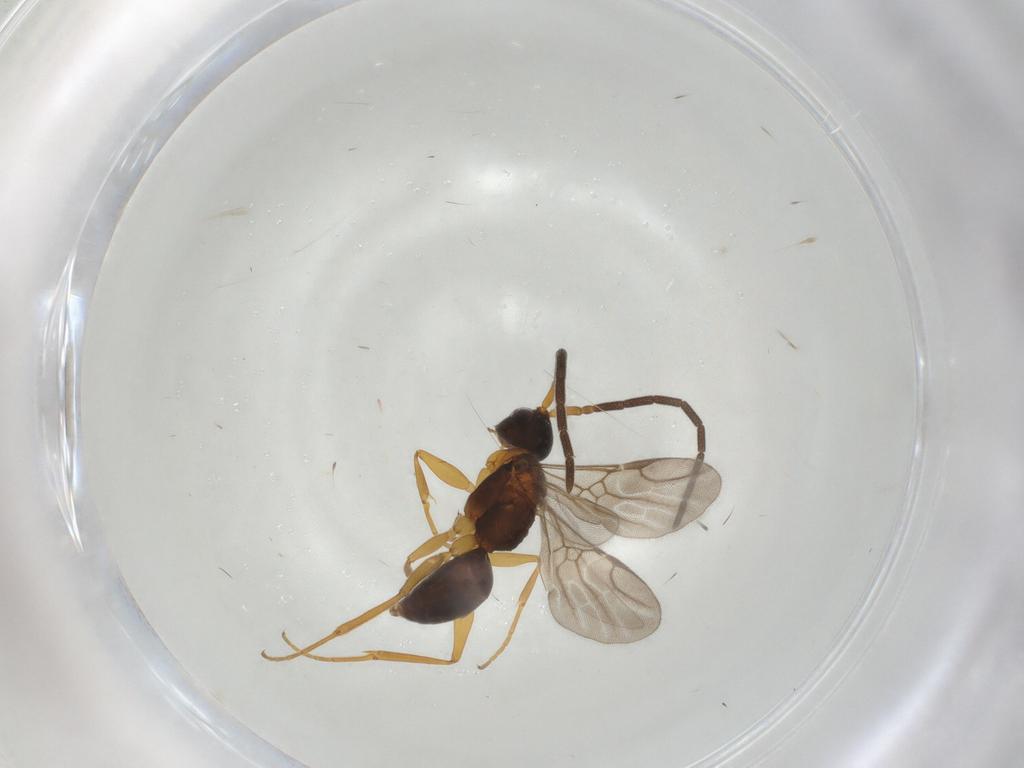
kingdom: Animalia
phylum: Arthropoda
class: Insecta
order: Hymenoptera
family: Embolemidae
